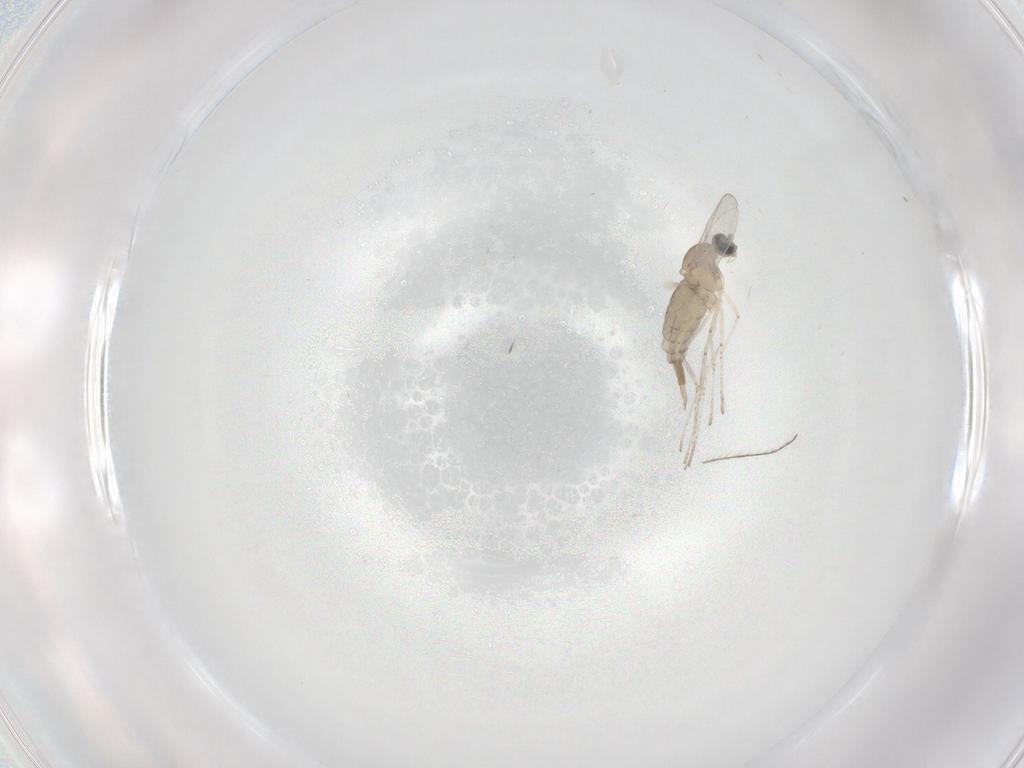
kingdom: Animalia
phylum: Arthropoda
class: Insecta
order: Diptera
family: Cecidomyiidae
